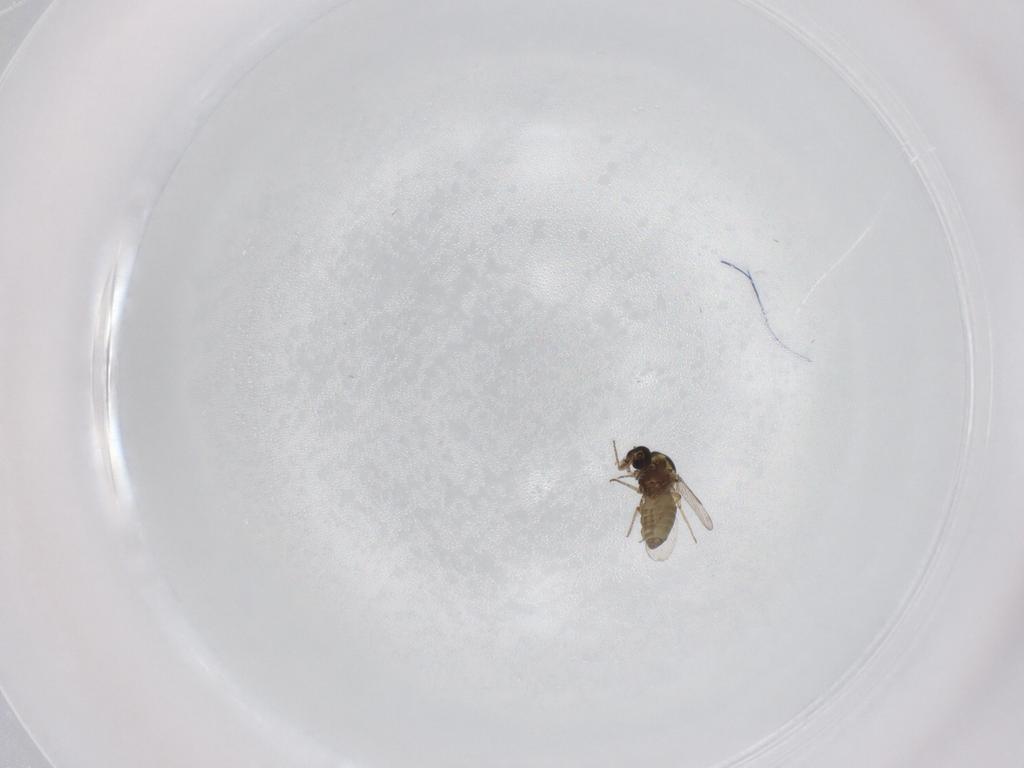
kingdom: Animalia
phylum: Arthropoda
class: Insecta
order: Diptera
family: Ceratopogonidae
